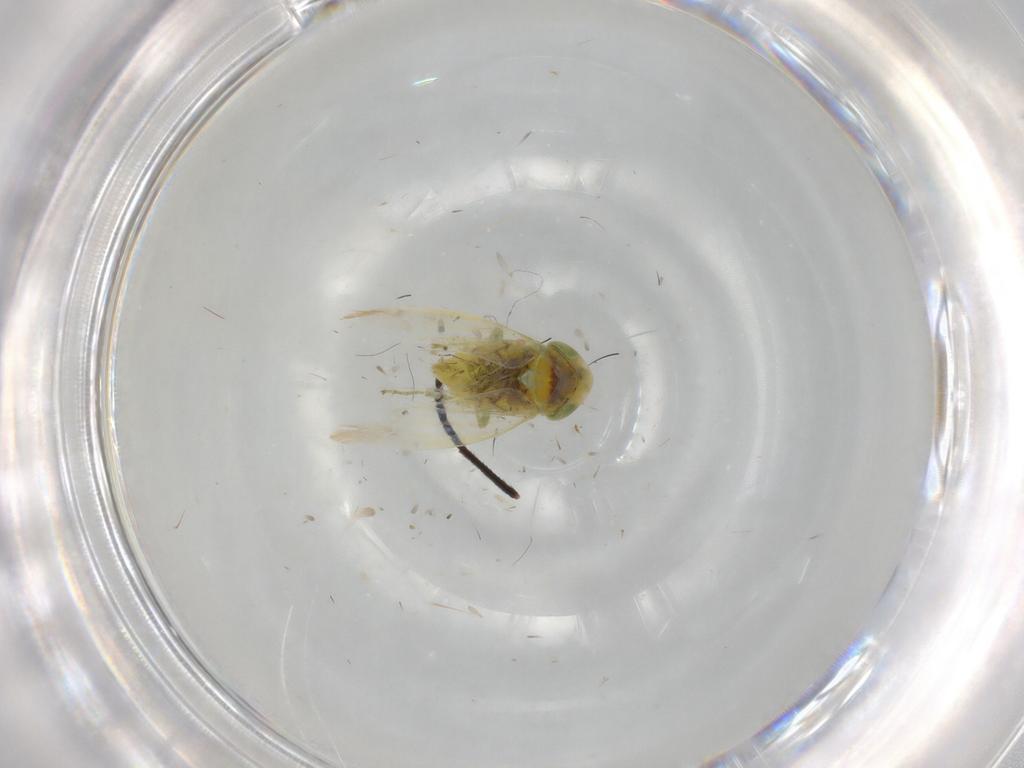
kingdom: Animalia
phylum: Arthropoda
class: Insecta
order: Hemiptera
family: Cicadellidae
